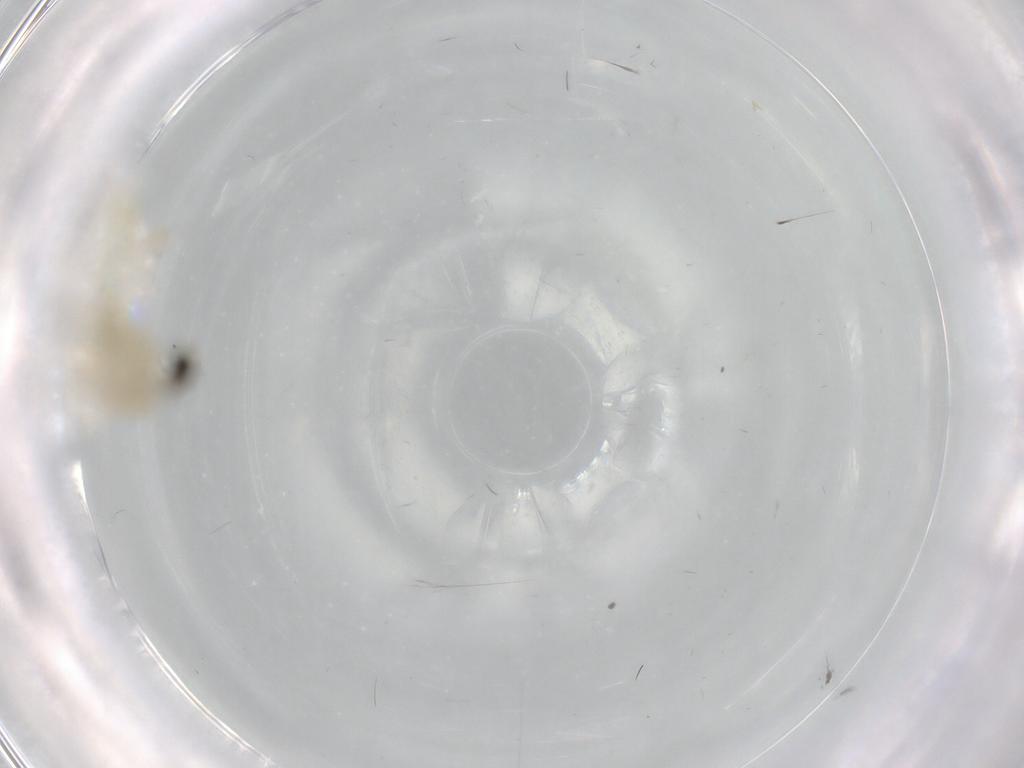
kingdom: Animalia
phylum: Arthropoda
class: Insecta
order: Diptera
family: Chironomidae
